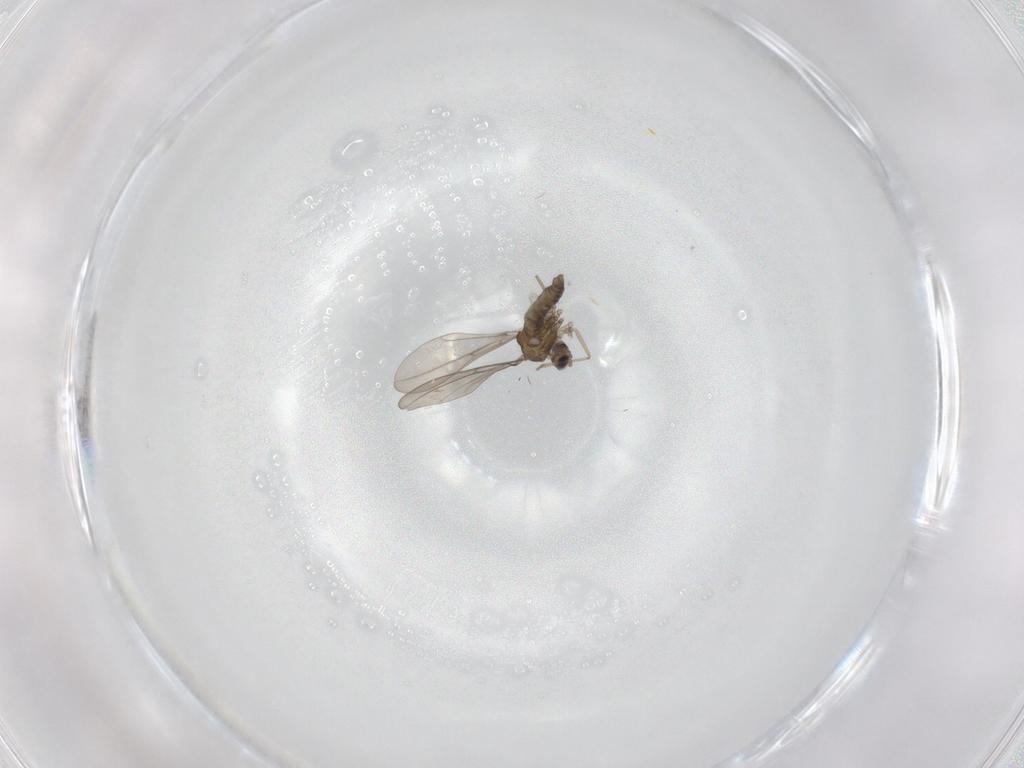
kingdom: Animalia
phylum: Arthropoda
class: Insecta
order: Diptera
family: Cecidomyiidae
